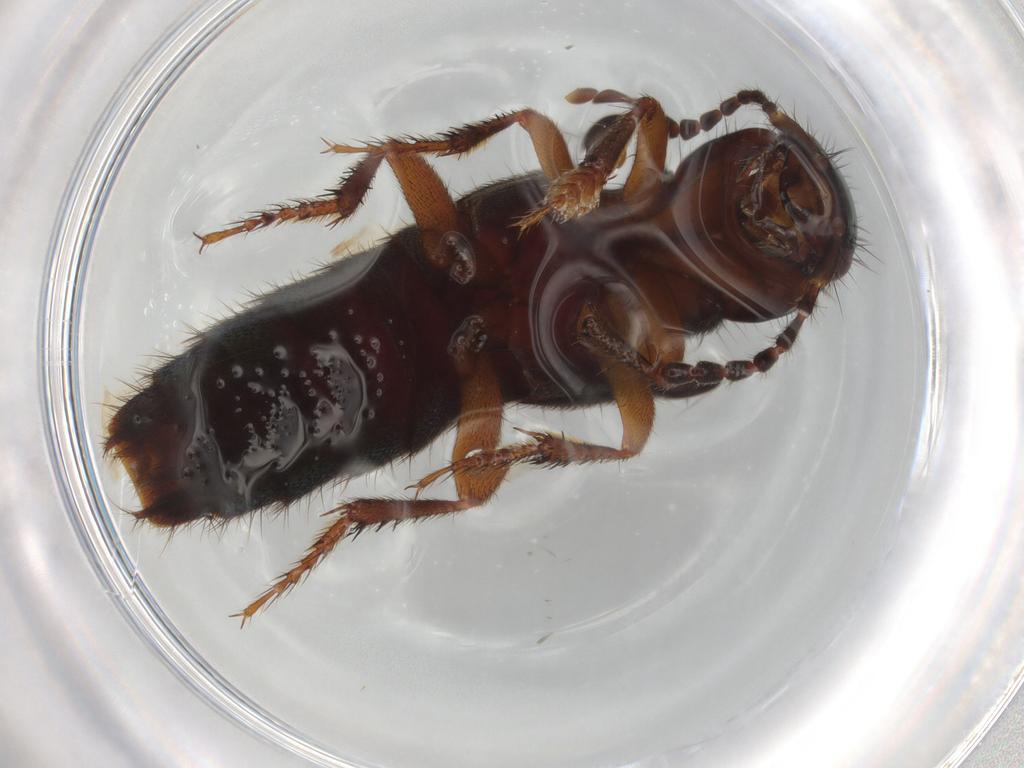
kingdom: Animalia
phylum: Arthropoda
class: Insecta
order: Coleoptera
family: Staphylinidae
